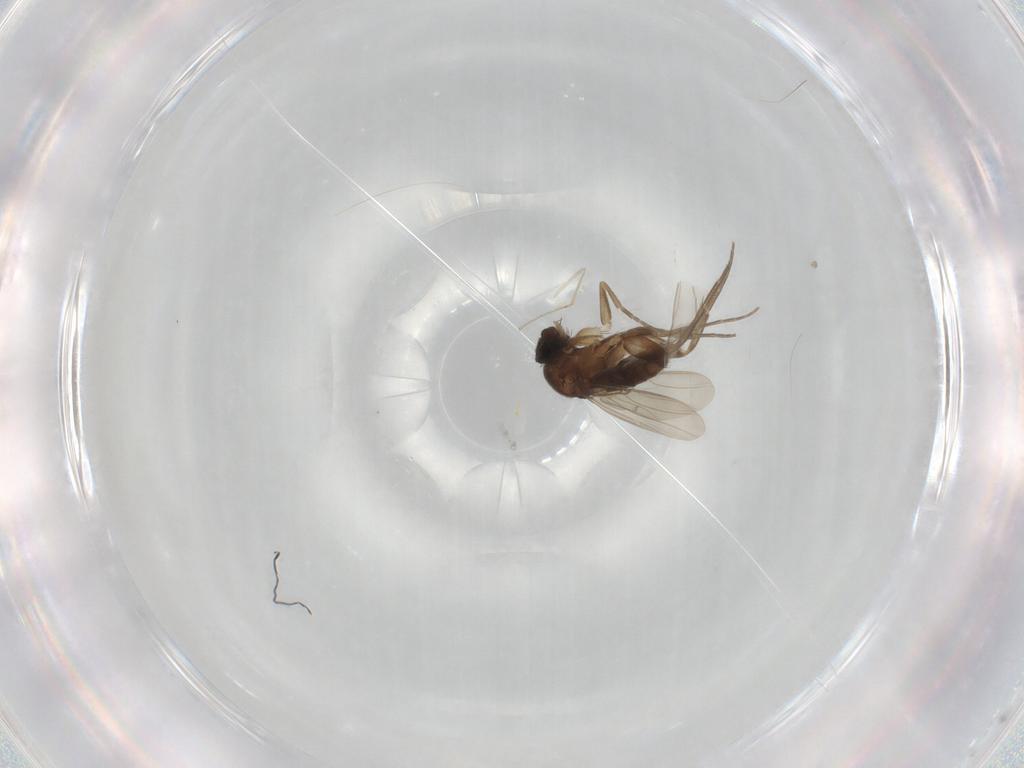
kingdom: Animalia
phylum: Arthropoda
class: Insecta
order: Diptera
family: Phoridae
